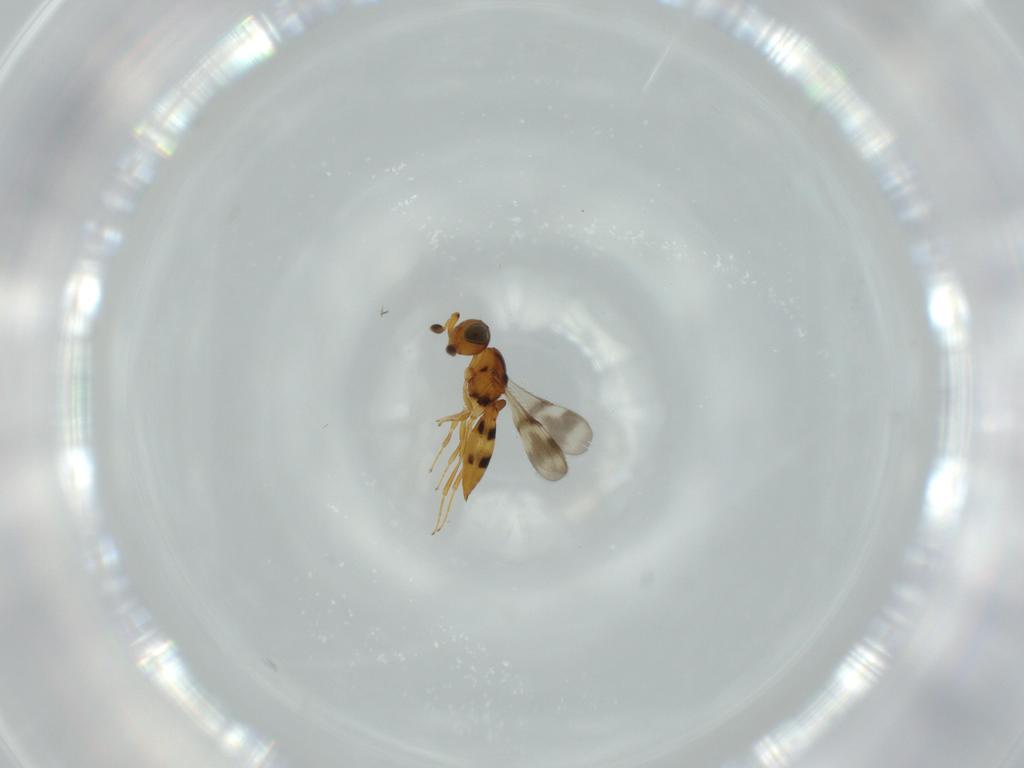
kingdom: Animalia
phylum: Arthropoda
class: Insecta
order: Hymenoptera
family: Scelionidae
